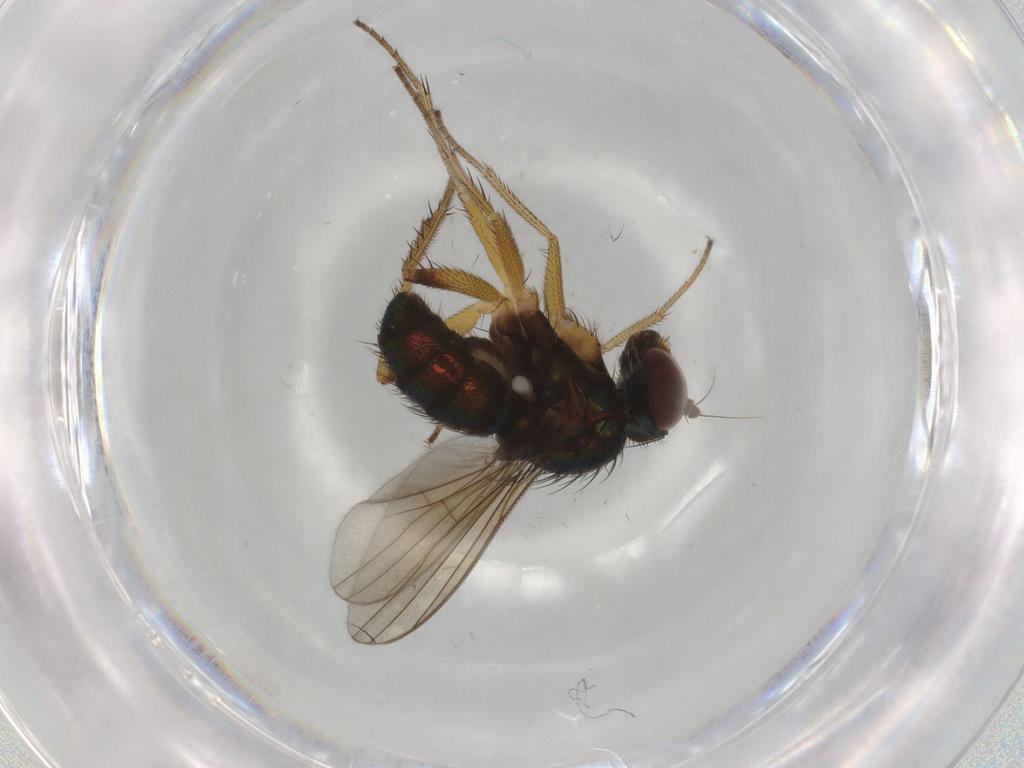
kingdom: Animalia
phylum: Arthropoda
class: Insecta
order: Diptera
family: Dolichopodidae
